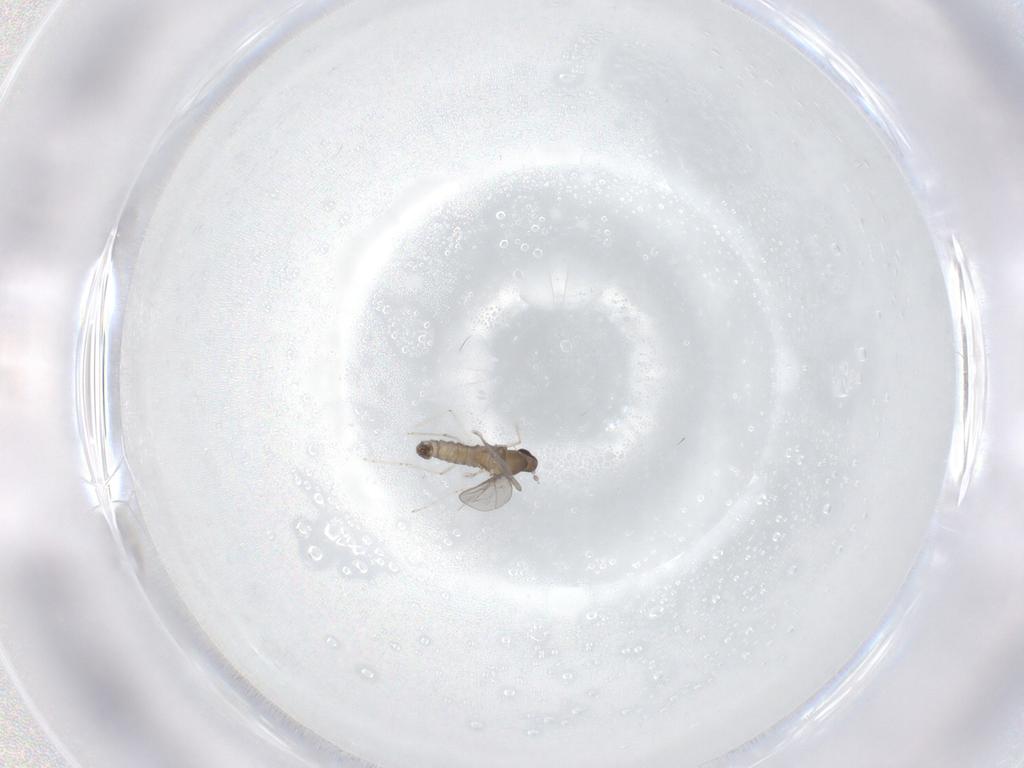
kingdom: Animalia
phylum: Arthropoda
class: Insecta
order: Diptera
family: Cecidomyiidae
